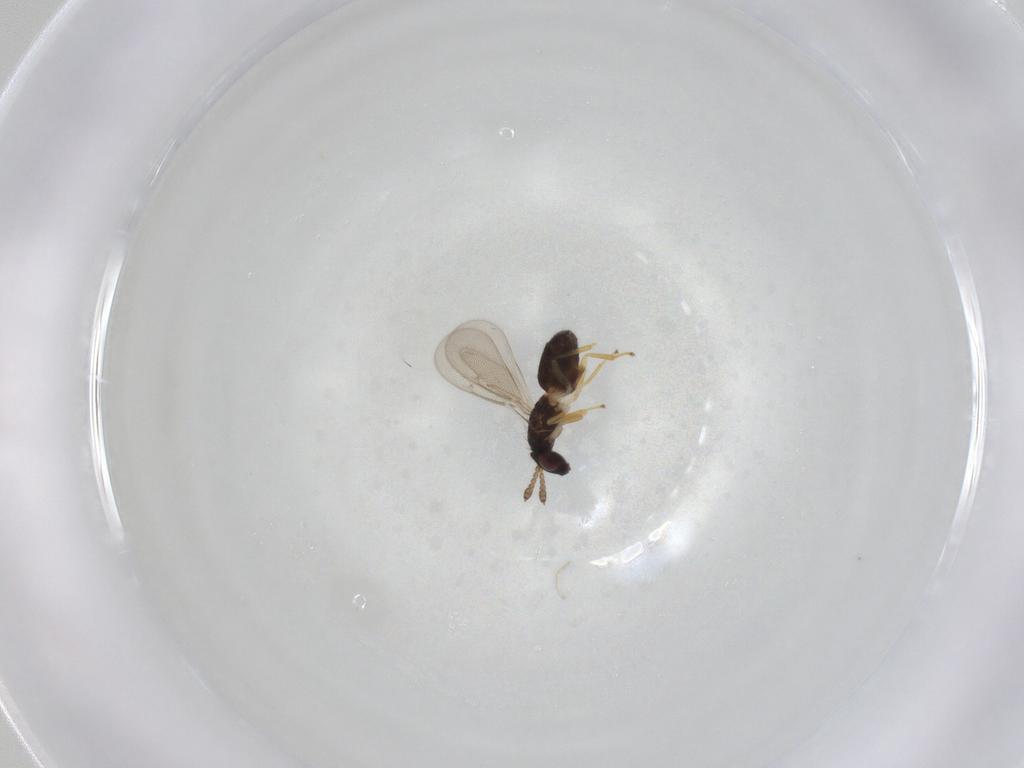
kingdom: Animalia
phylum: Arthropoda
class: Insecta
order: Hymenoptera
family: Eulophidae
